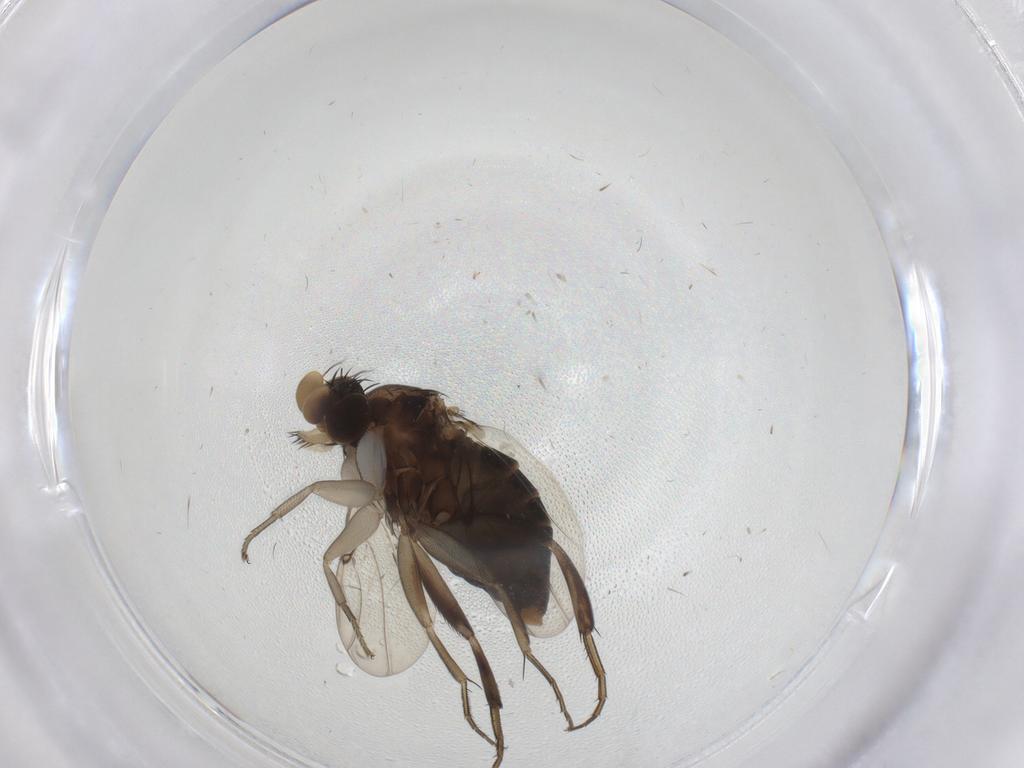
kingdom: Animalia
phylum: Arthropoda
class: Insecta
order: Diptera
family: Phoridae
